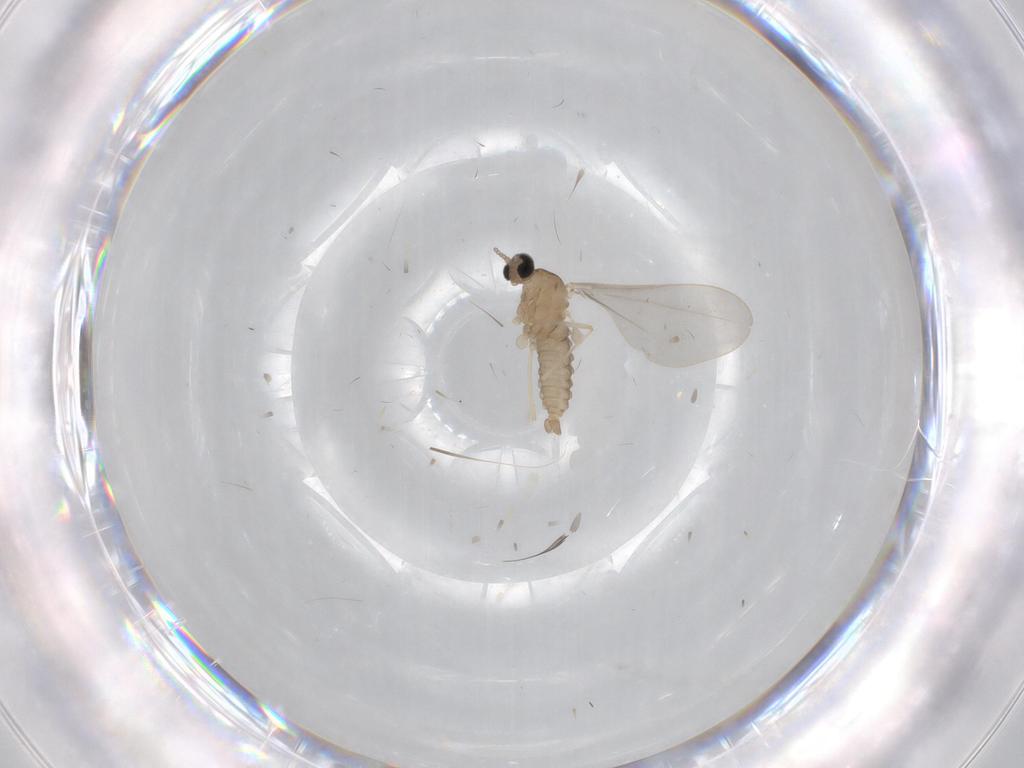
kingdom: Animalia
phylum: Arthropoda
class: Insecta
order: Diptera
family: Cecidomyiidae
